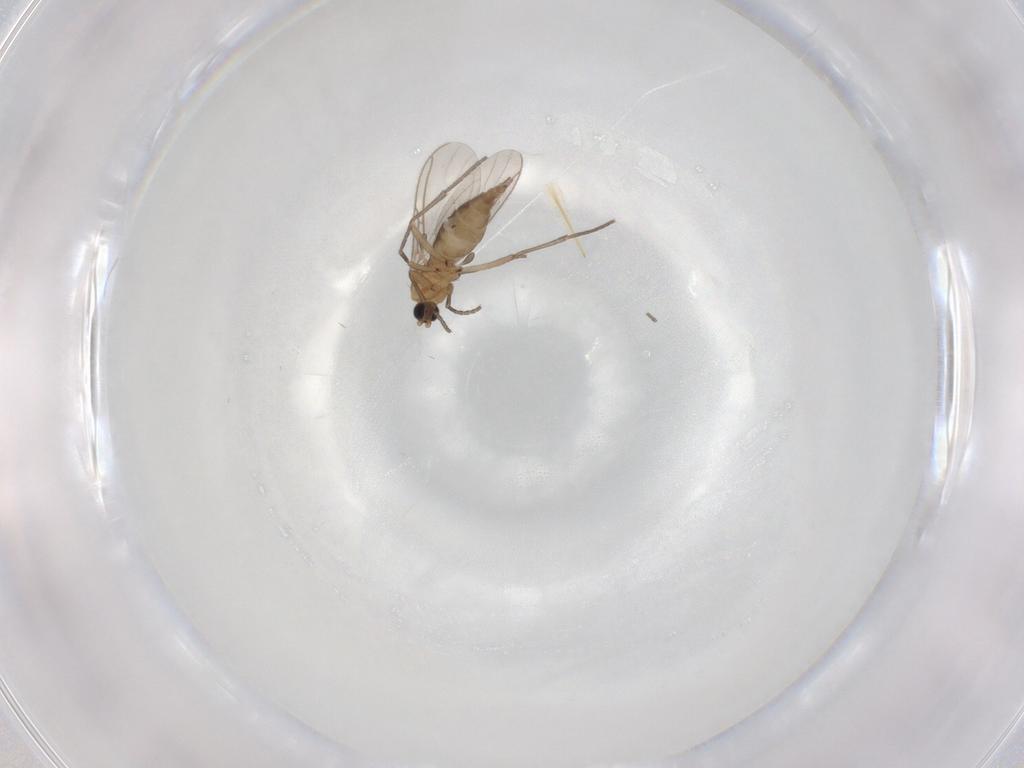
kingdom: Animalia
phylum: Arthropoda
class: Insecta
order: Diptera
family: Sciaridae
